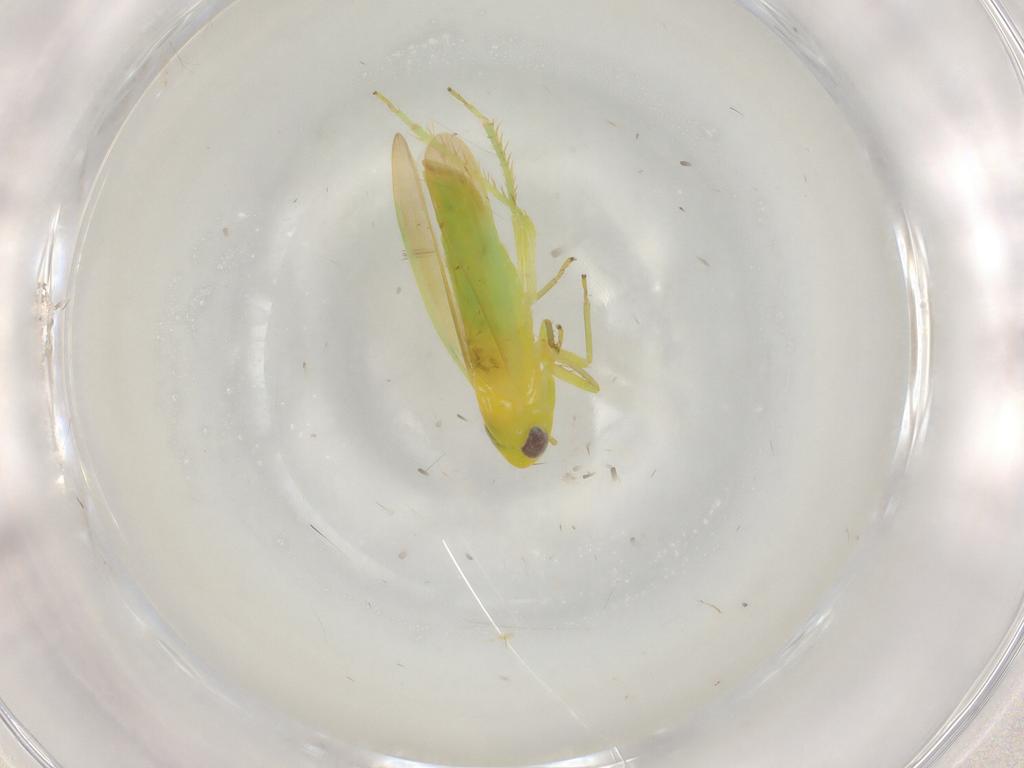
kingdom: Animalia
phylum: Arthropoda
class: Insecta
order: Hemiptera
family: Cicadellidae
